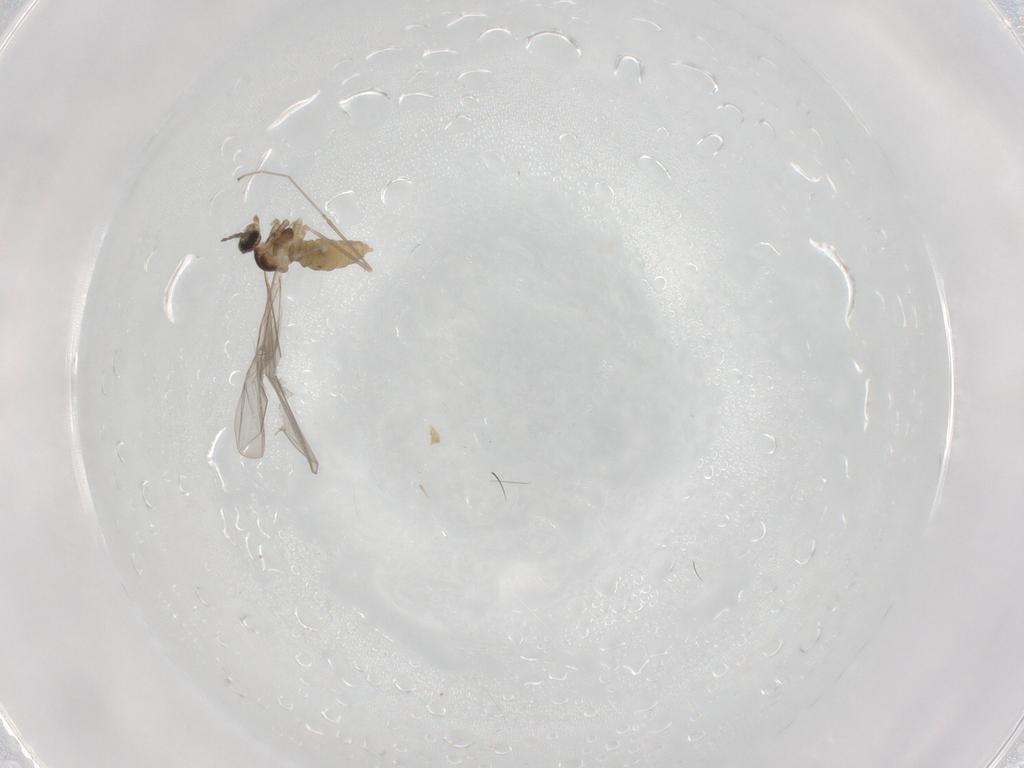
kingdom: Animalia
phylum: Arthropoda
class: Insecta
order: Diptera
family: Cecidomyiidae
